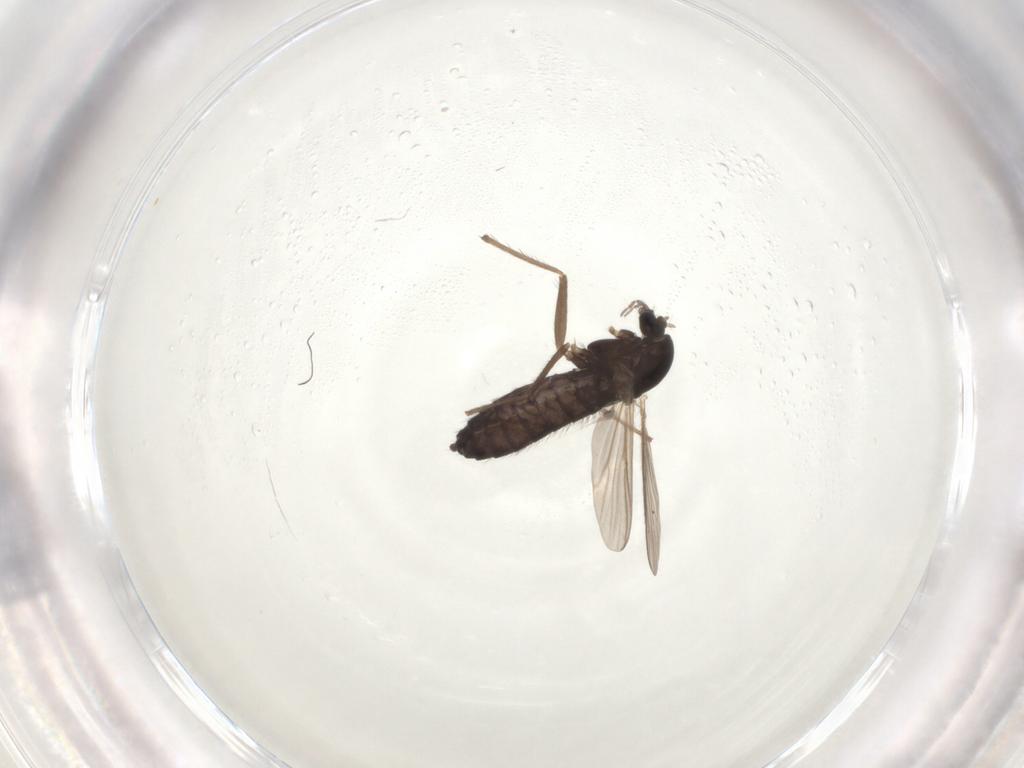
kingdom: Animalia
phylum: Arthropoda
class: Insecta
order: Diptera
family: Chironomidae
